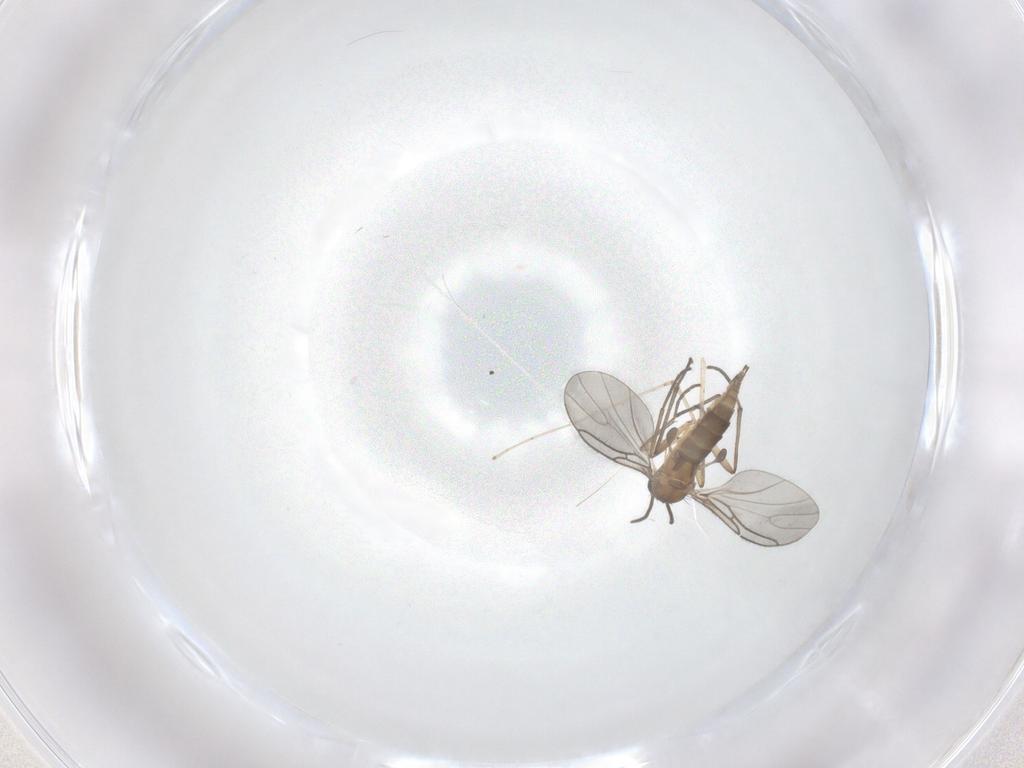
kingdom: Animalia
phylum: Arthropoda
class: Insecta
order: Diptera
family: Sciaridae
